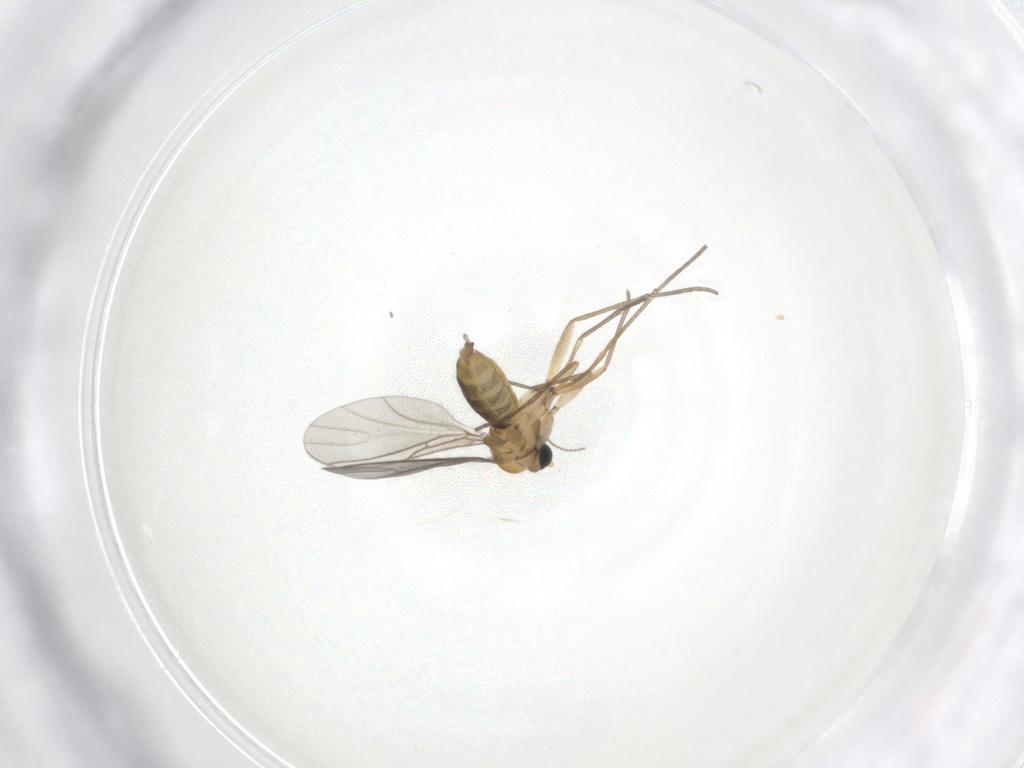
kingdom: Animalia
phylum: Arthropoda
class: Insecta
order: Diptera
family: Sciaridae
